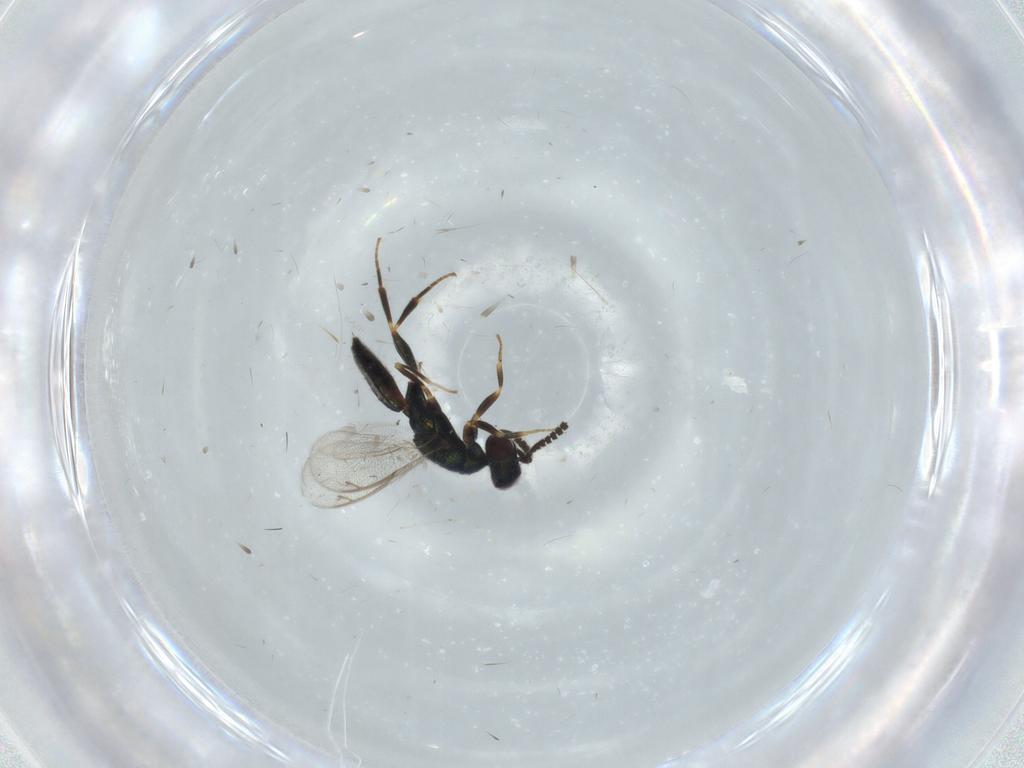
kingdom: Animalia
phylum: Arthropoda
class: Insecta
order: Hymenoptera
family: Cleonyminae
